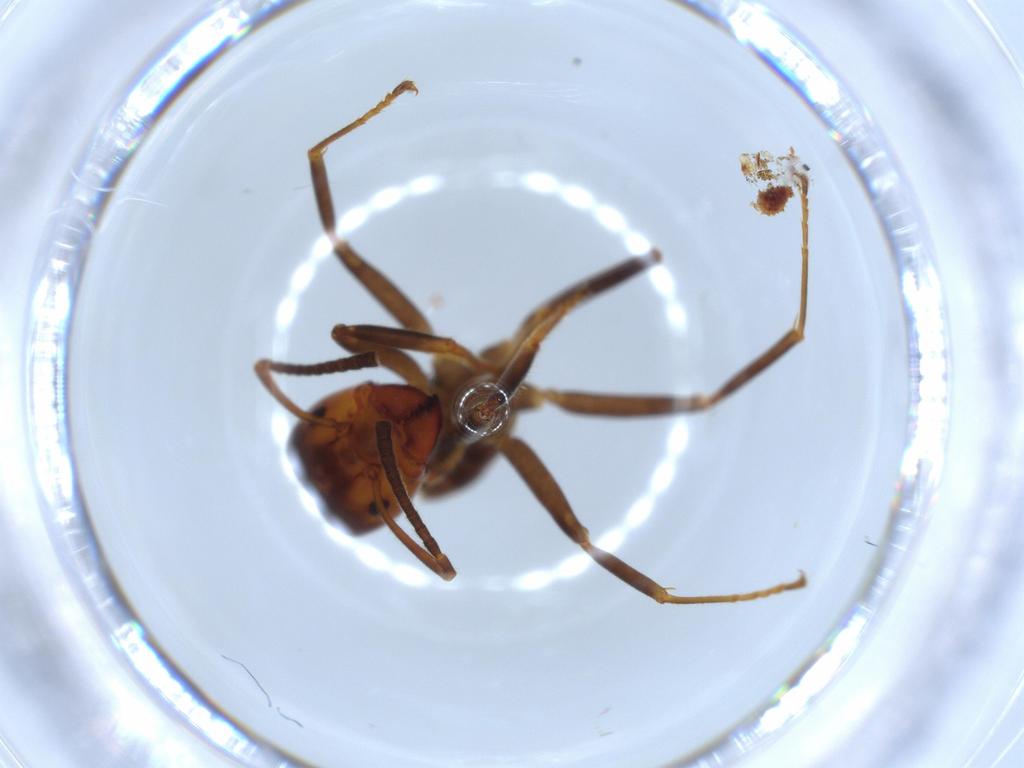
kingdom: Animalia
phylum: Arthropoda
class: Insecta
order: Hymenoptera
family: Formicidae
